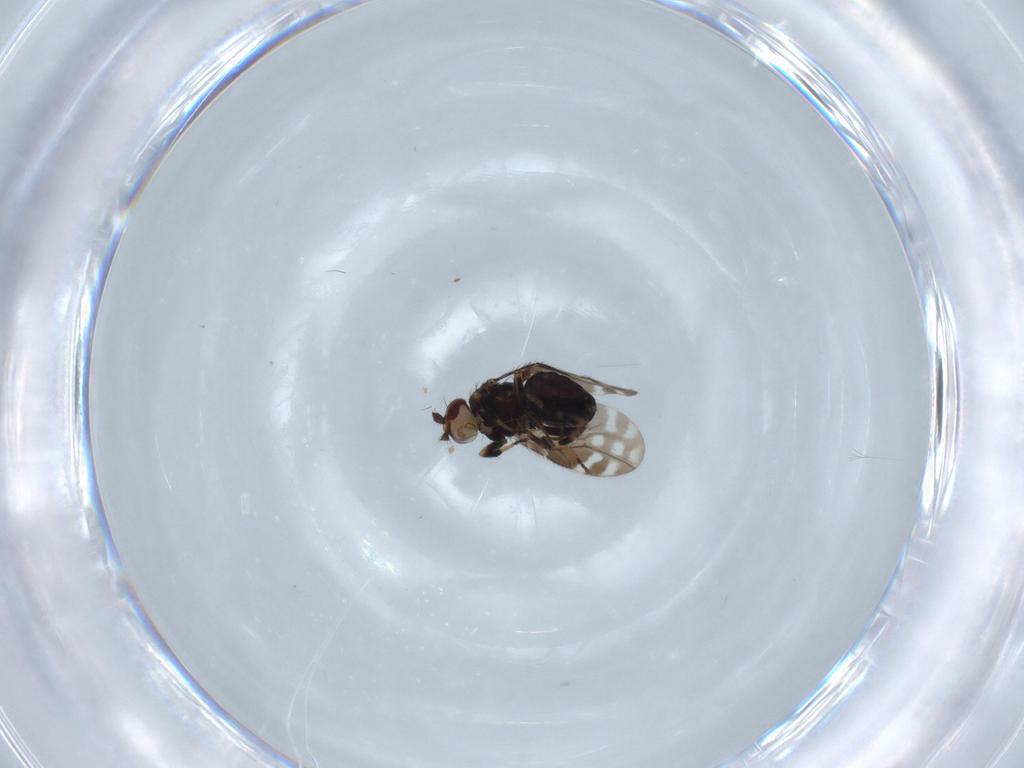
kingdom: Animalia
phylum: Arthropoda
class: Insecta
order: Diptera
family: Sphaeroceridae
